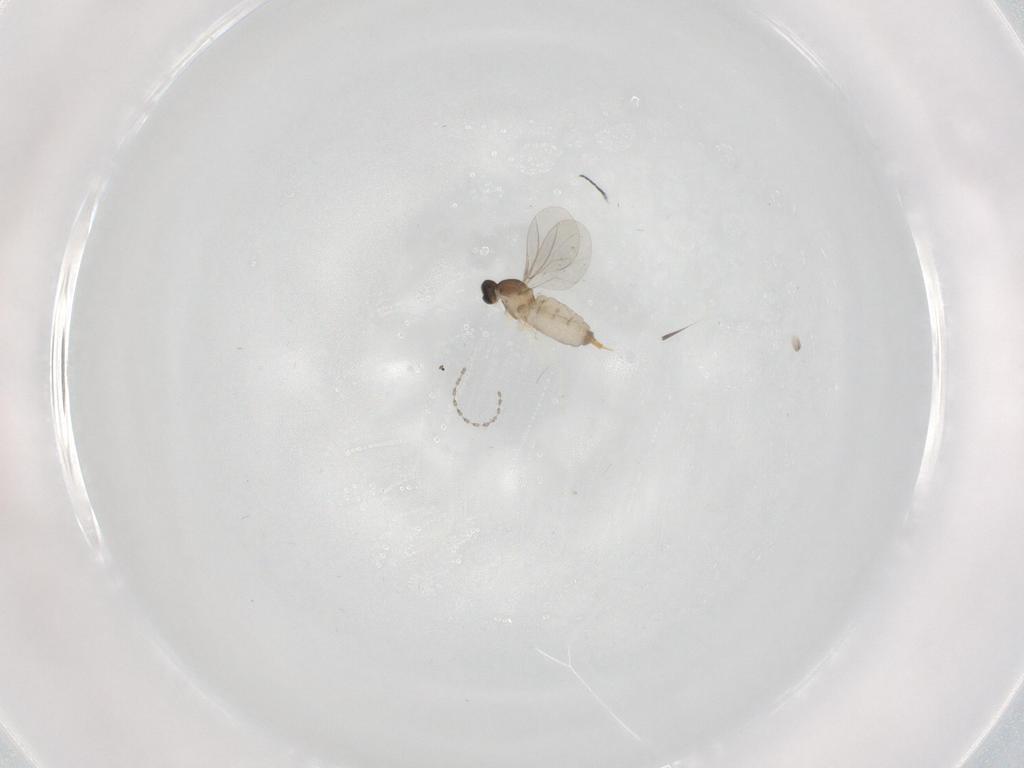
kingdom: Animalia
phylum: Arthropoda
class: Insecta
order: Diptera
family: Cecidomyiidae
